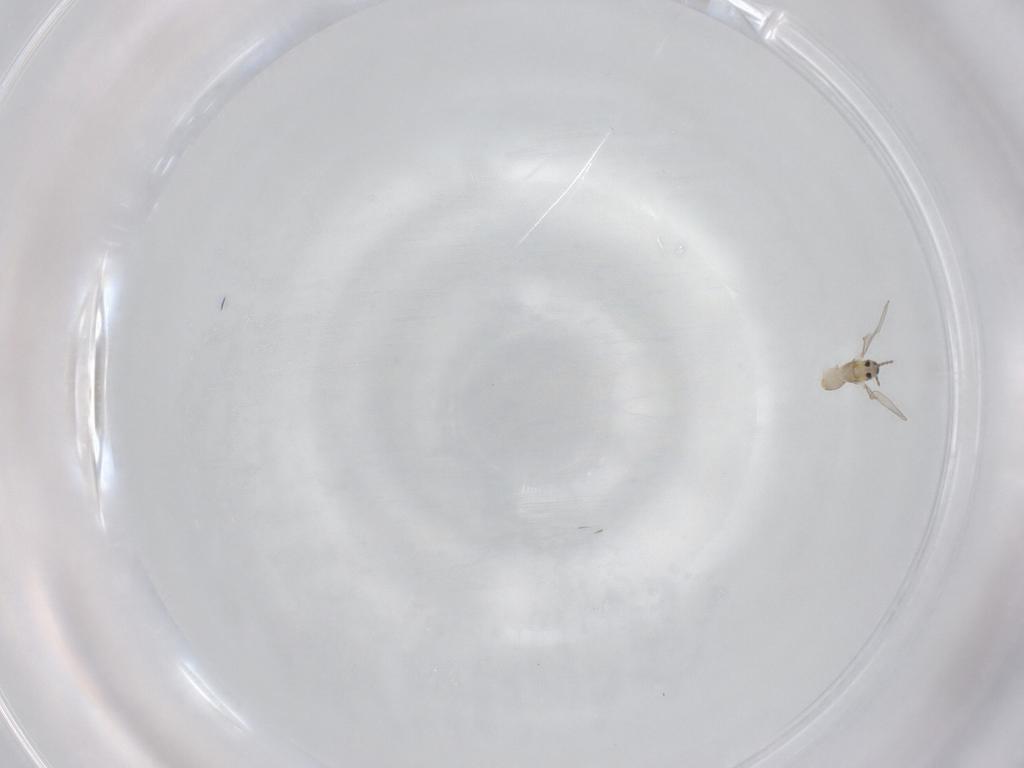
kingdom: Animalia
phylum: Arthropoda
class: Insecta
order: Diptera
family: Cecidomyiidae
